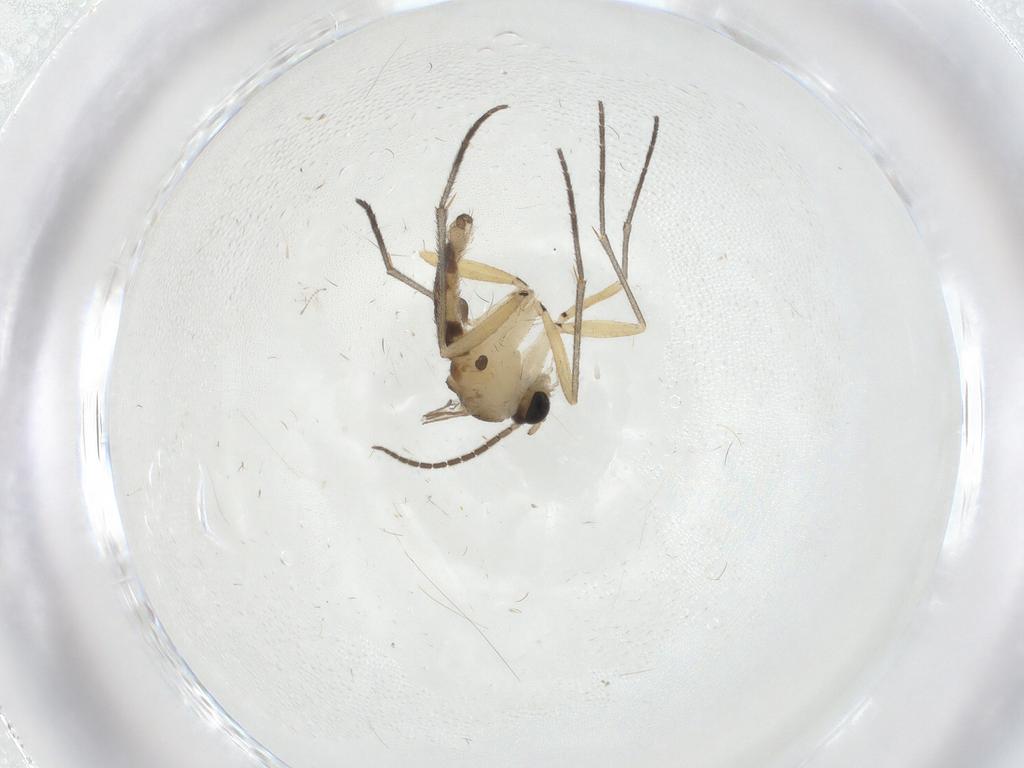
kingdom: Animalia
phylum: Arthropoda
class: Insecta
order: Diptera
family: Sciaridae
